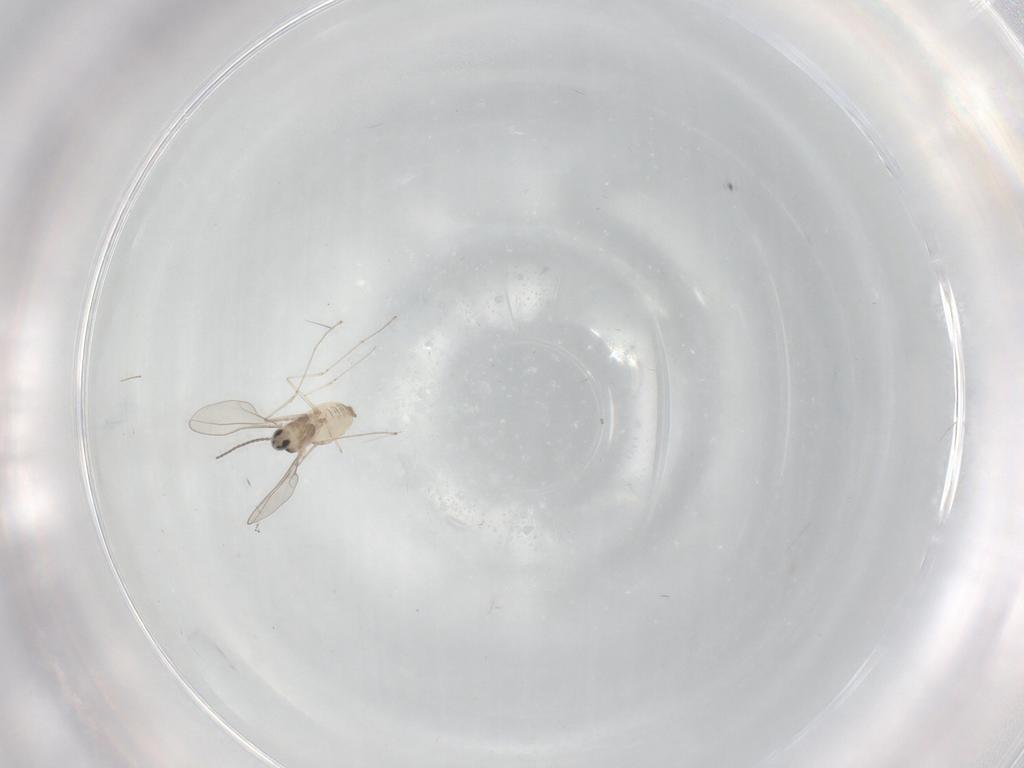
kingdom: Animalia
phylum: Arthropoda
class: Insecta
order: Diptera
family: Cecidomyiidae
